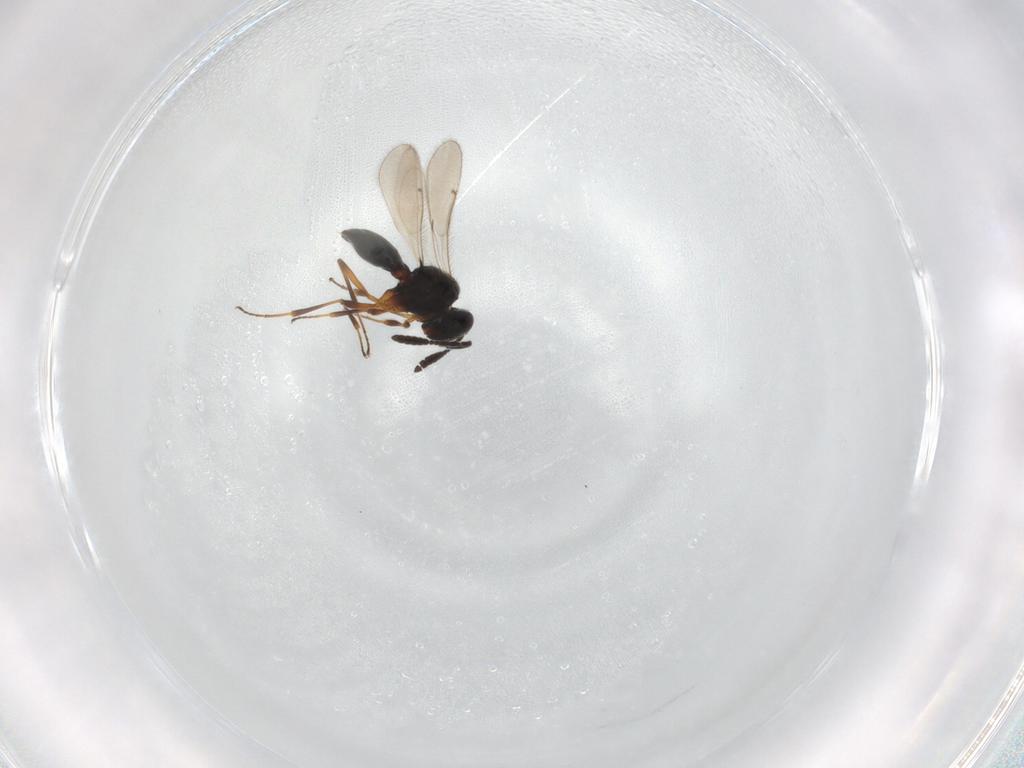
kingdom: Animalia
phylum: Arthropoda
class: Insecta
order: Hymenoptera
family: Scelionidae
